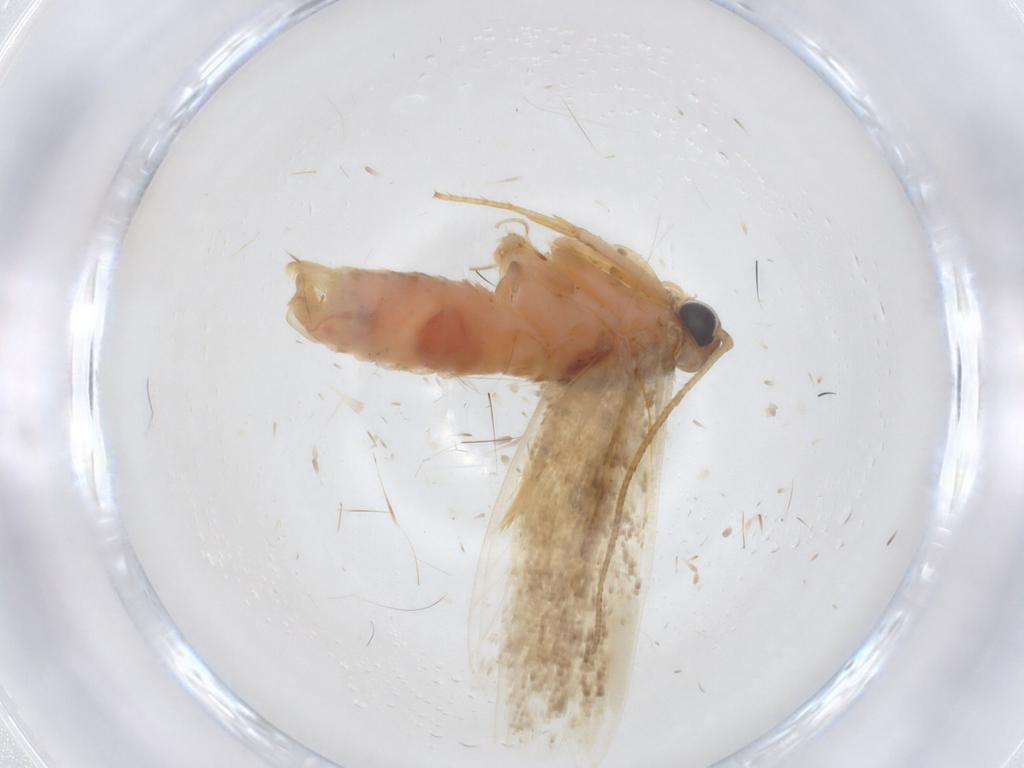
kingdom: Animalia
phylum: Arthropoda
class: Insecta
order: Lepidoptera
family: Gelechiidae
